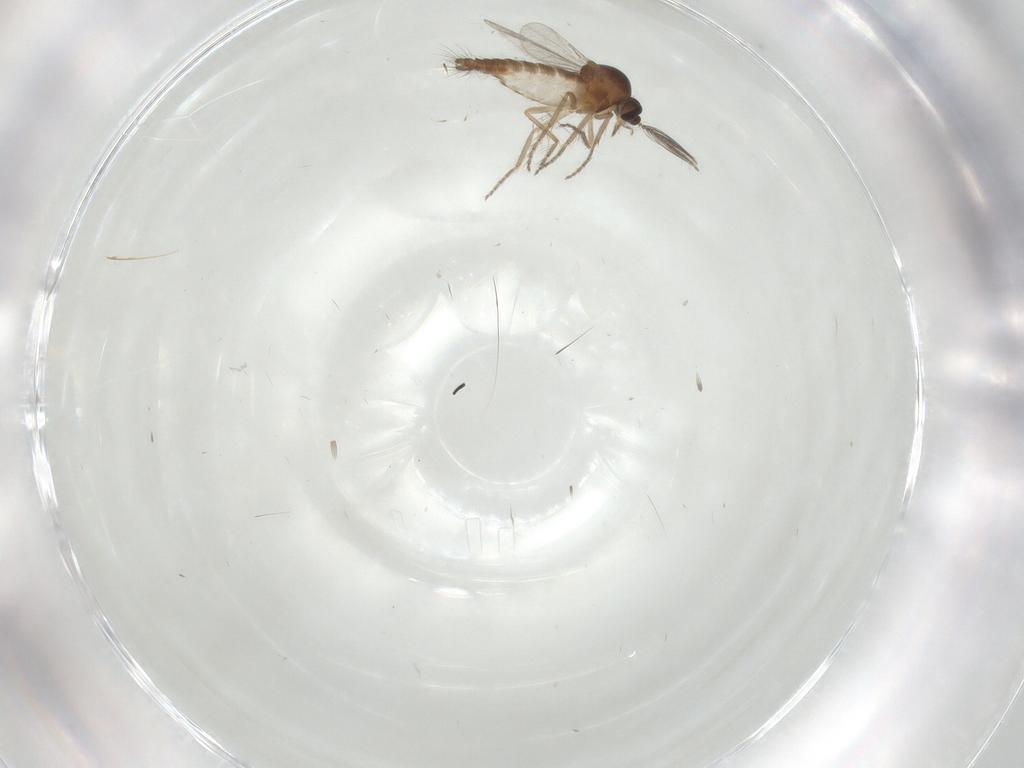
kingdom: Animalia
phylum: Arthropoda
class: Insecta
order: Diptera
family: Ceratopogonidae
